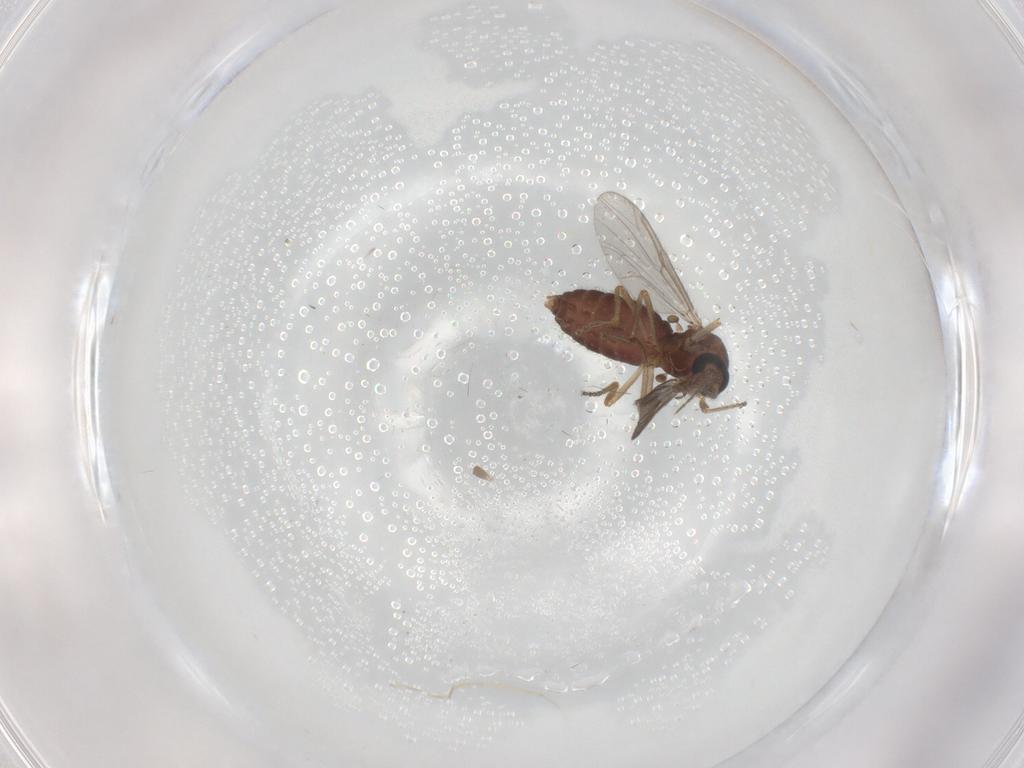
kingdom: Animalia
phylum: Arthropoda
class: Insecta
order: Diptera
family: Ceratopogonidae
